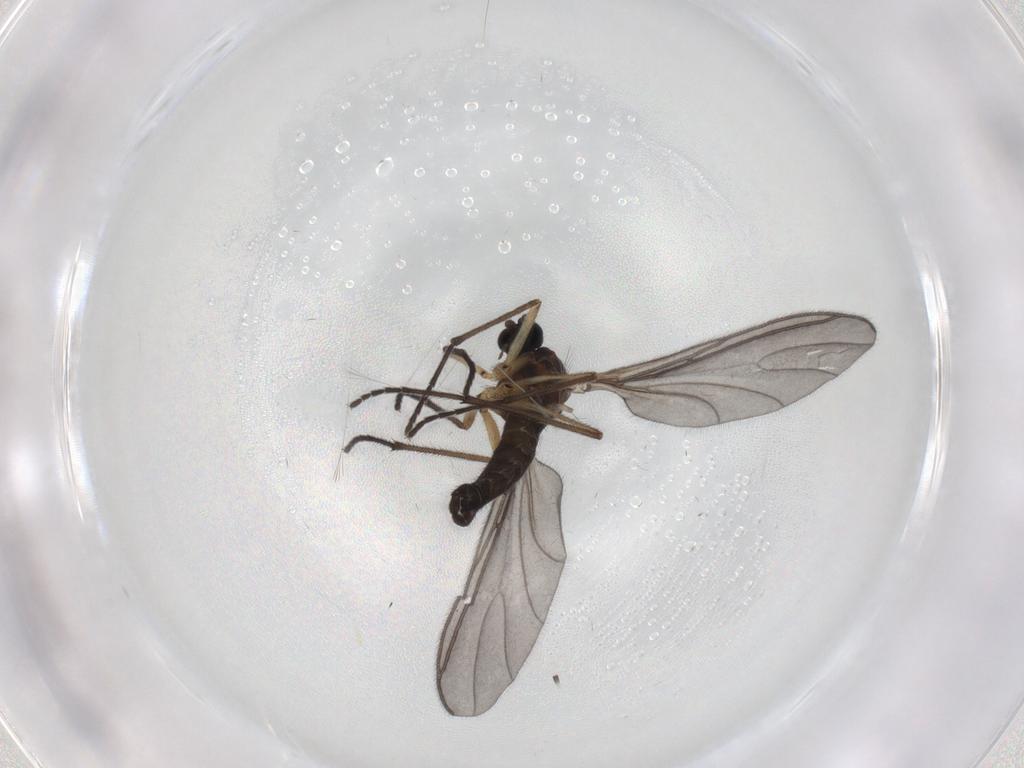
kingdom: Animalia
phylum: Arthropoda
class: Insecta
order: Diptera
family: Sciaridae
